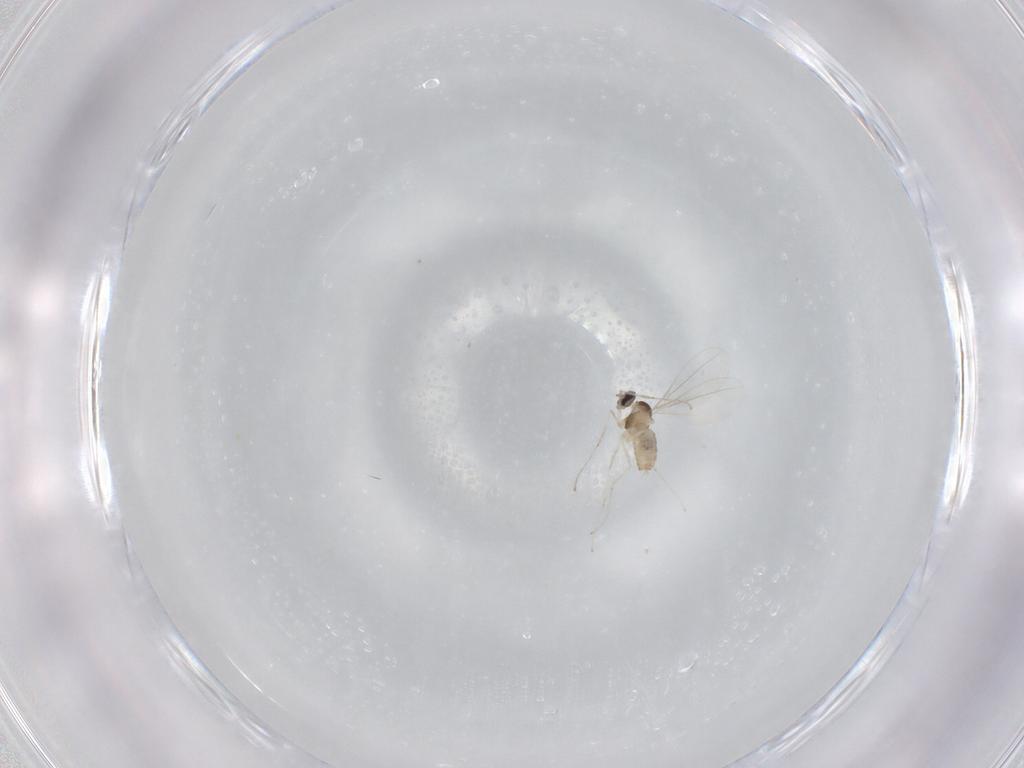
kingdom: Animalia
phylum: Arthropoda
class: Insecta
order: Diptera
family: Cecidomyiidae
